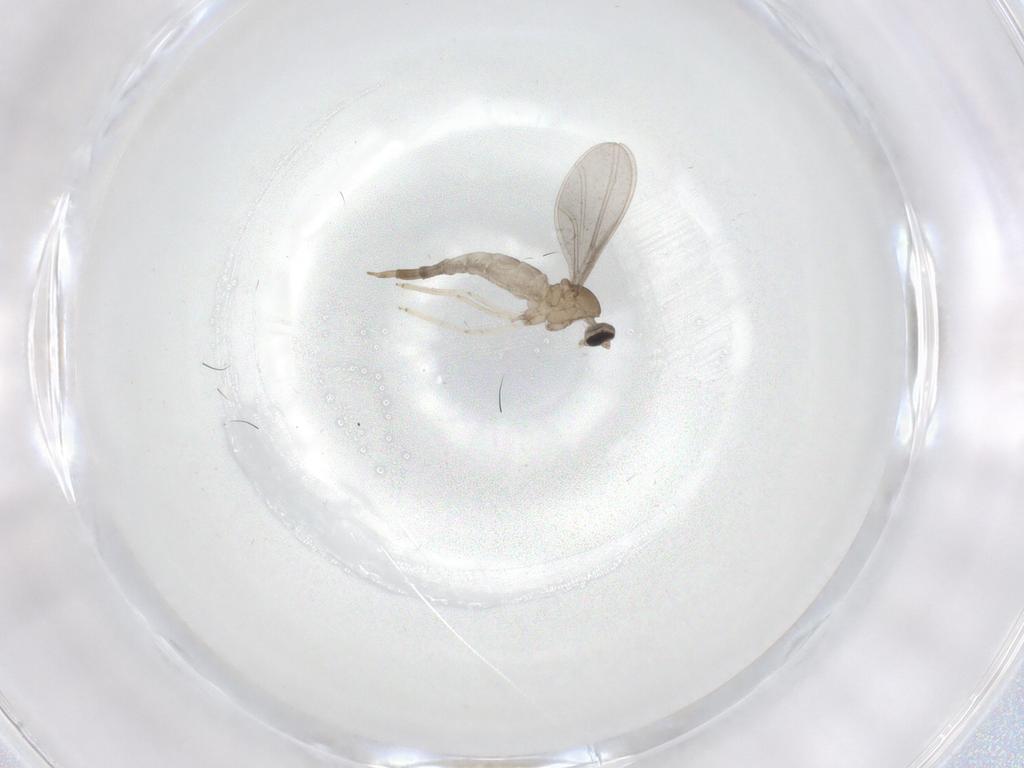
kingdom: Animalia
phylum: Arthropoda
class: Insecta
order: Diptera
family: Cecidomyiidae
